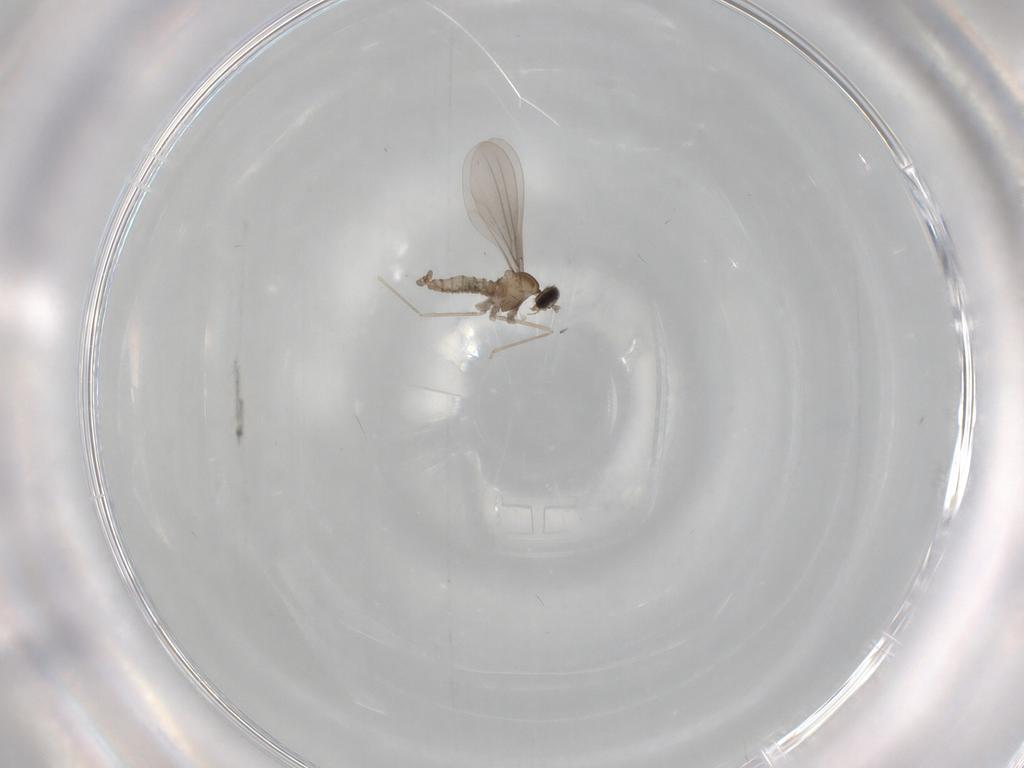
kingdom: Animalia
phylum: Arthropoda
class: Insecta
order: Diptera
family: Cecidomyiidae
